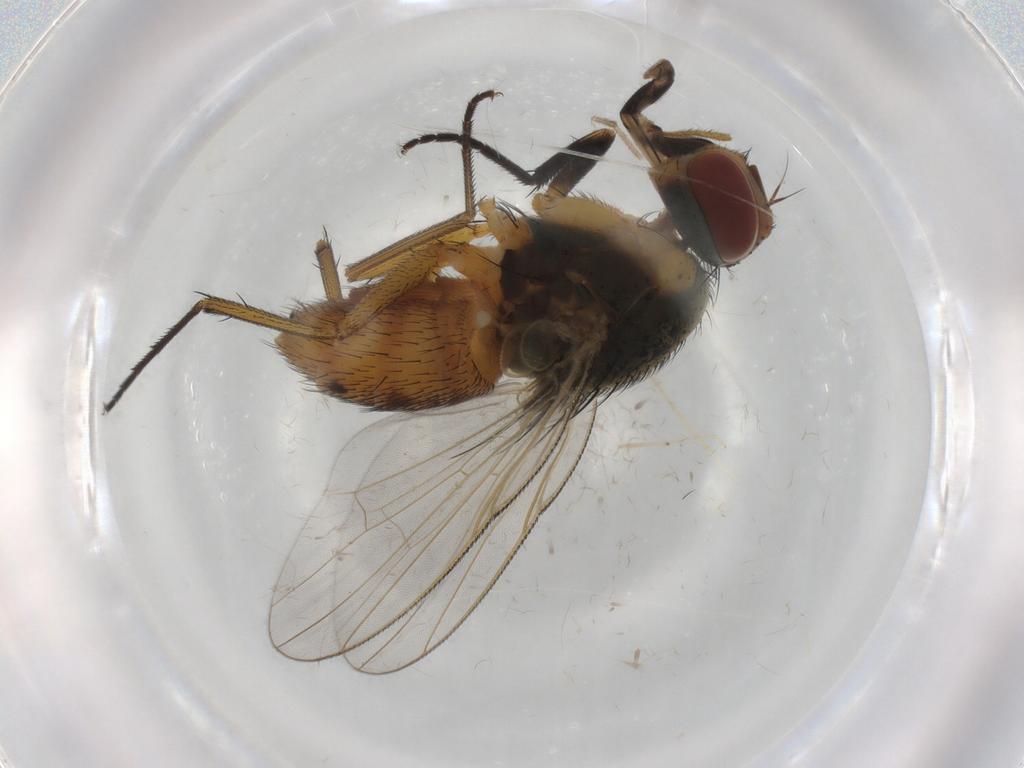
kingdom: Animalia
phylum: Arthropoda
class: Insecta
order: Diptera
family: Muscidae
